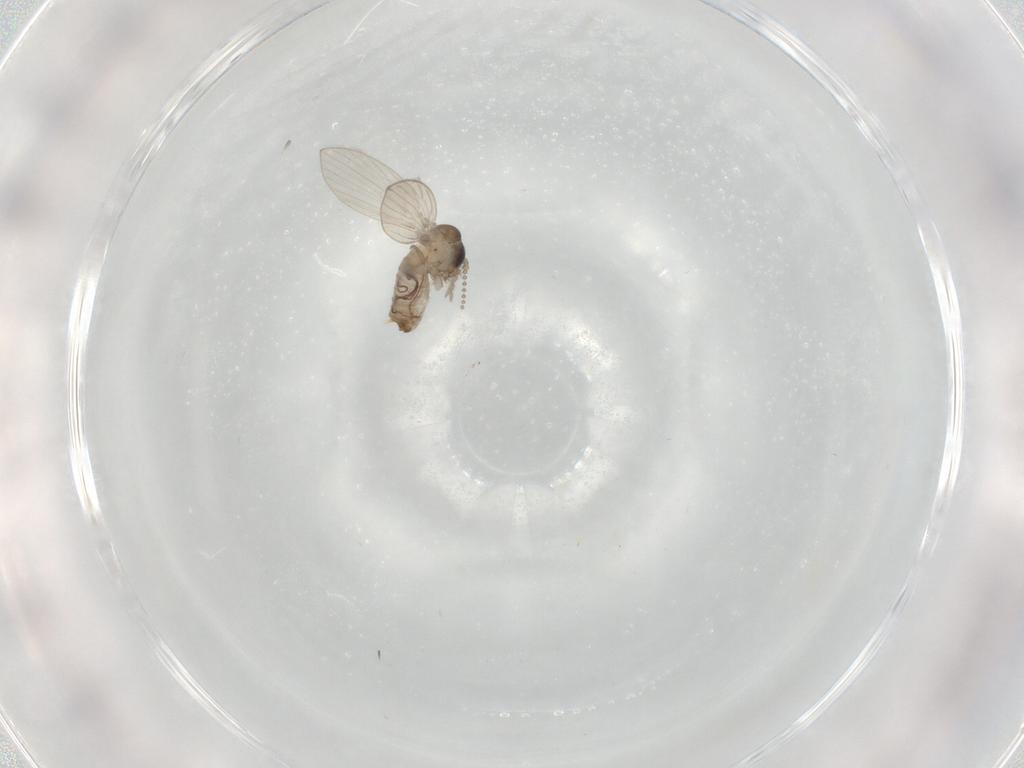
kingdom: Animalia
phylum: Arthropoda
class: Insecta
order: Diptera
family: Psychodidae
